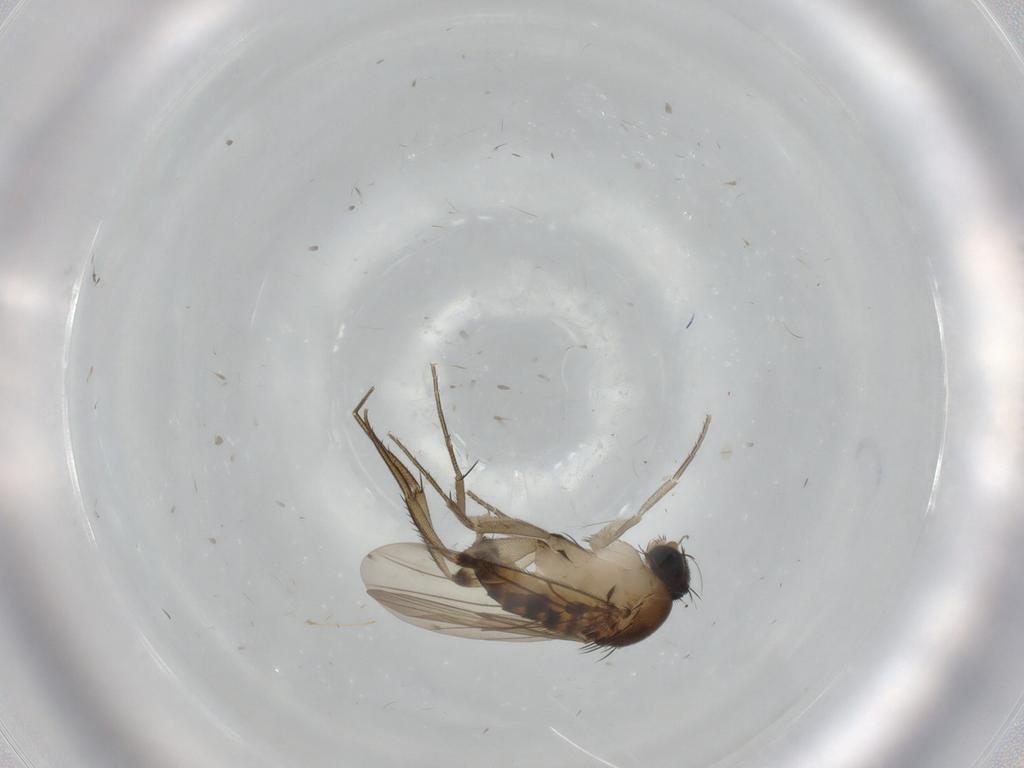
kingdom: Animalia
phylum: Arthropoda
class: Insecta
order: Diptera
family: Phoridae
